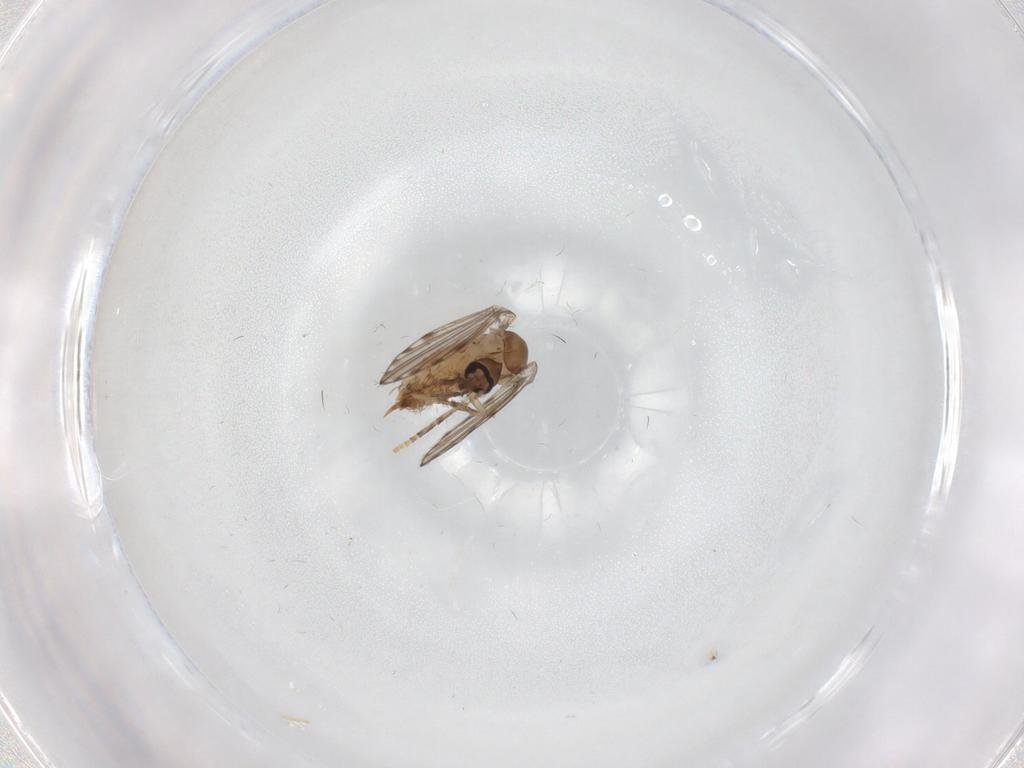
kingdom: Animalia
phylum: Arthropoda
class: Insecta
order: Diptera
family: Psychodidae
